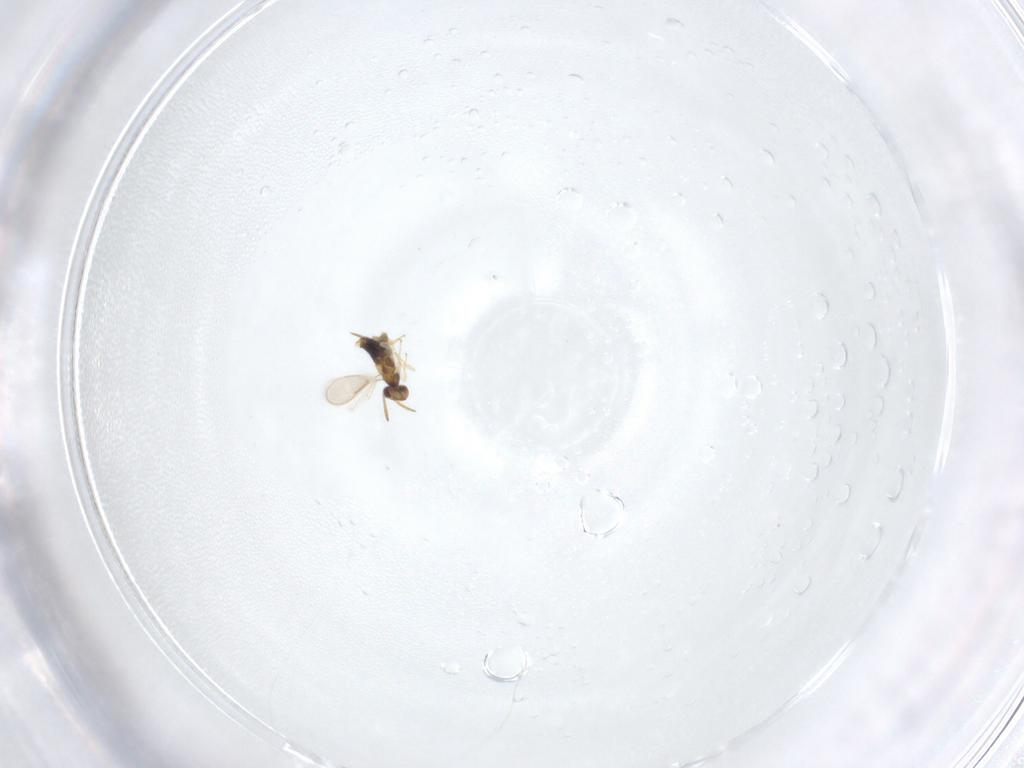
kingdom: Animalia
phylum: Arthropoda
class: Insecta
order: Hymenoptera
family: Aphelinidae
